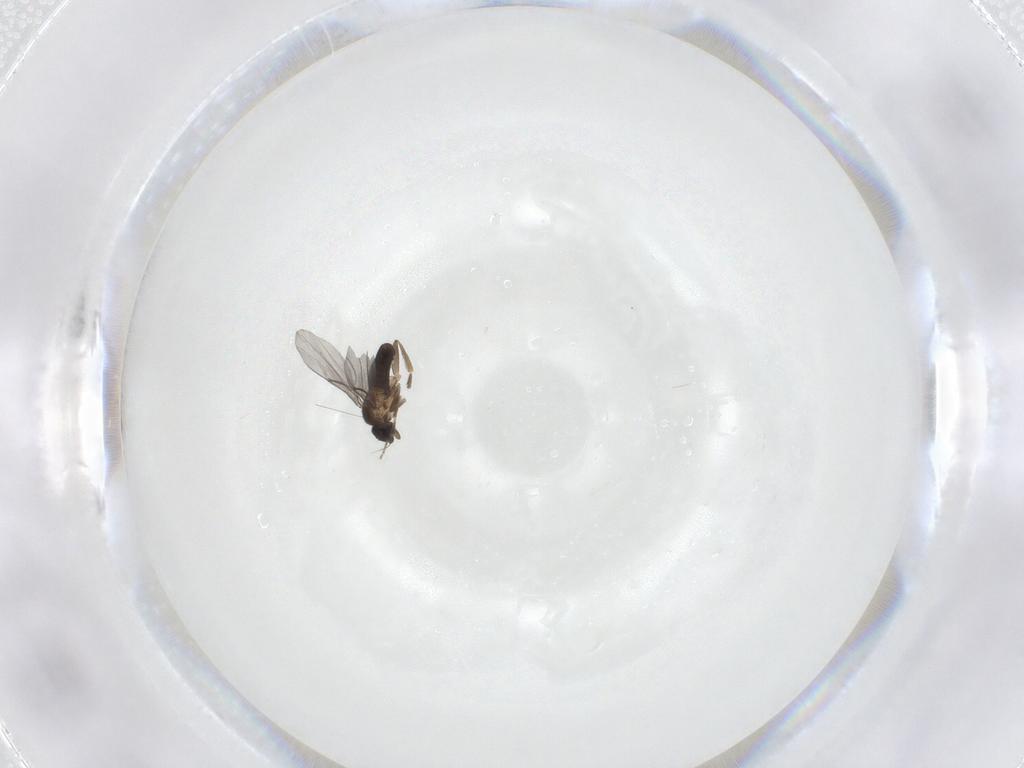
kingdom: Animalia
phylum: Arthropoda
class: Insecta
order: Diptera
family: Phoridae
